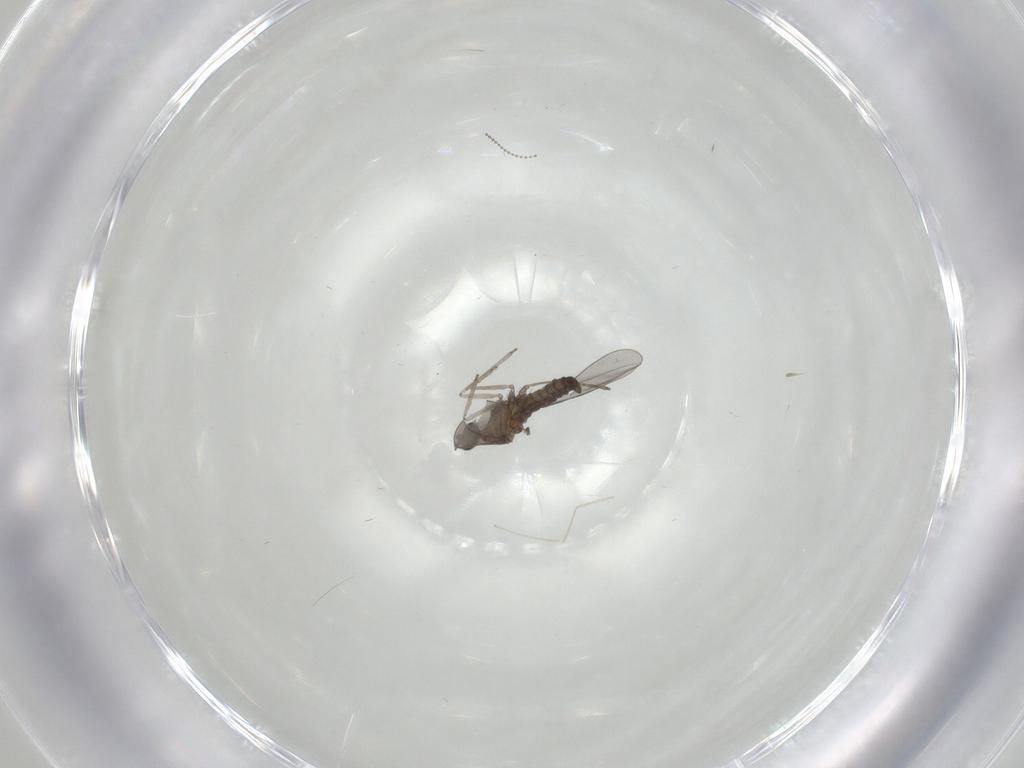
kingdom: Animalia
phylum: Arthropoda
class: Insecta
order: Diptera
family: Cecidomyiidae
